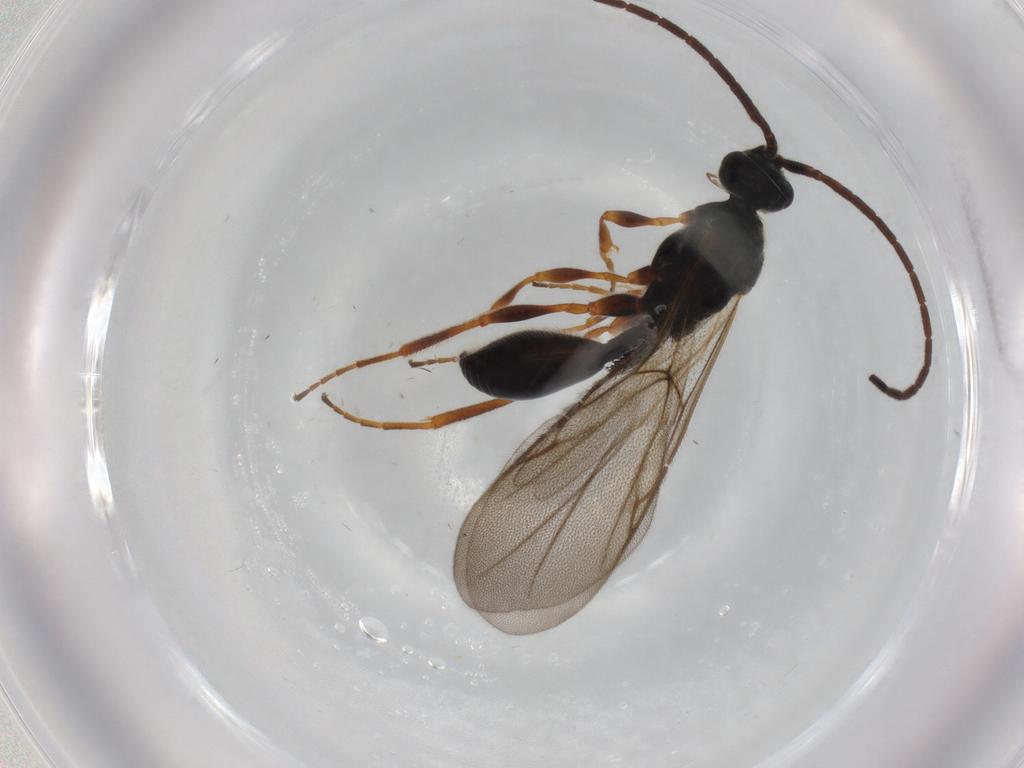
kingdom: Animalia
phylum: Arthropoda
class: Insecta
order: Hymenoptera
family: Diapriidae
